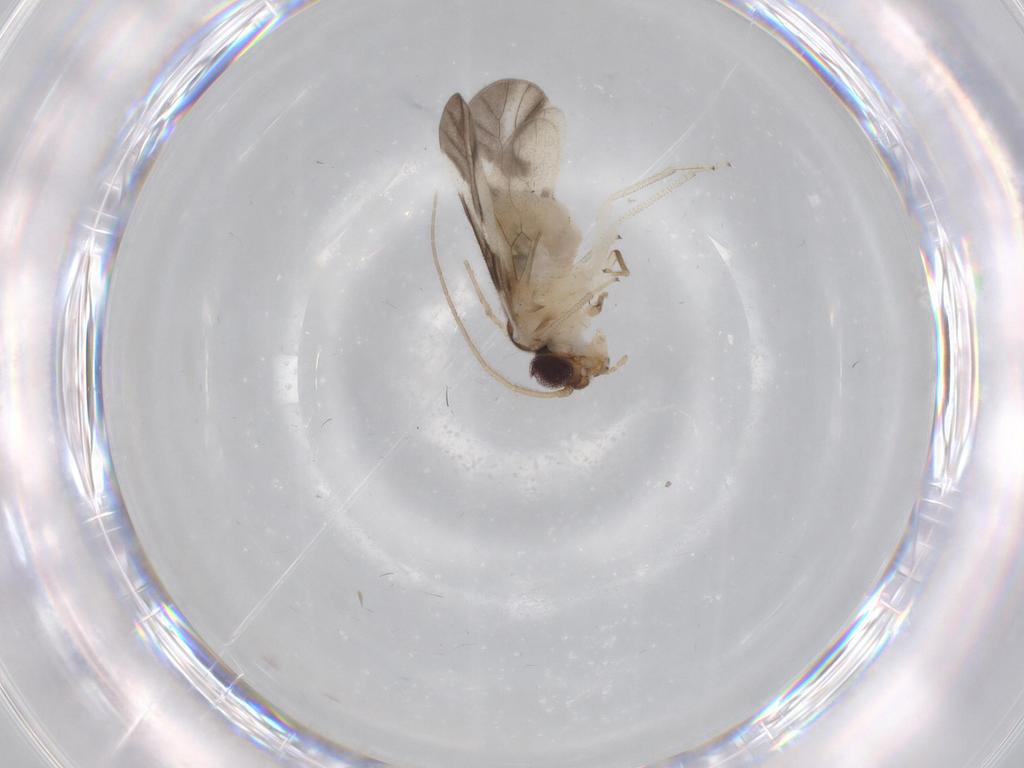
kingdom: Animalia
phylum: Arthropoda
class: Insecta
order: Psocodea
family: Caeciliusidae
